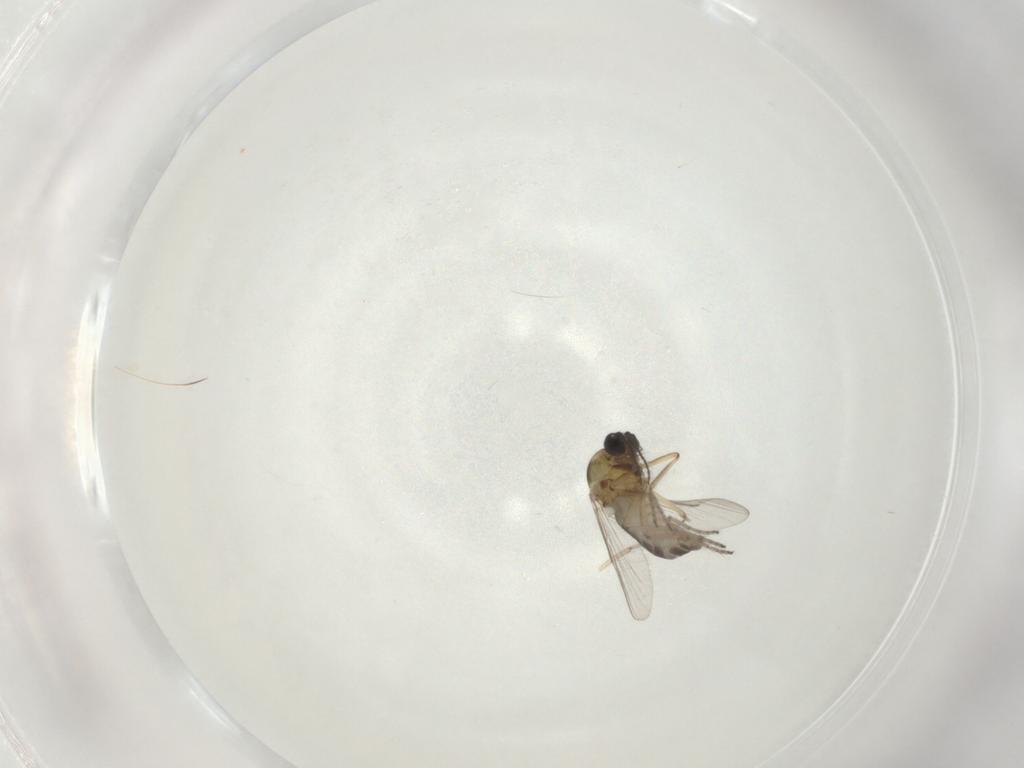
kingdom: Animalia
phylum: Arthropoda
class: Insecta
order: Diptera
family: Ceratopogonidae
